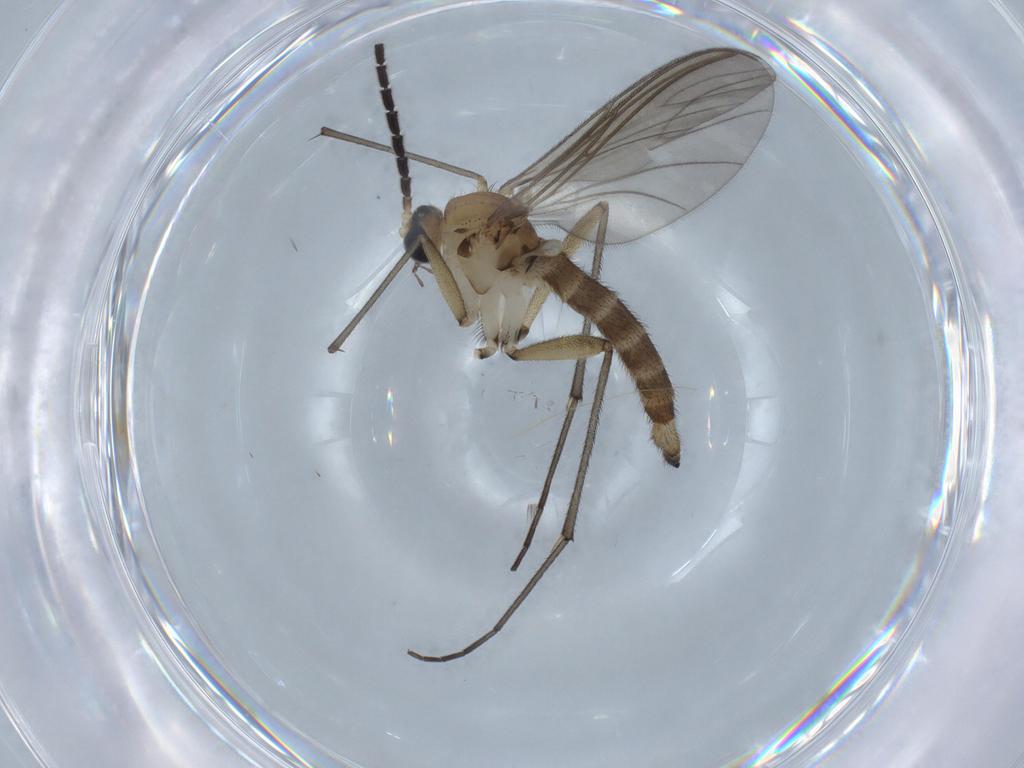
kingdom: Animalia
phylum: Arthropoda
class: Insecta
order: Diptera
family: Sciaridae
